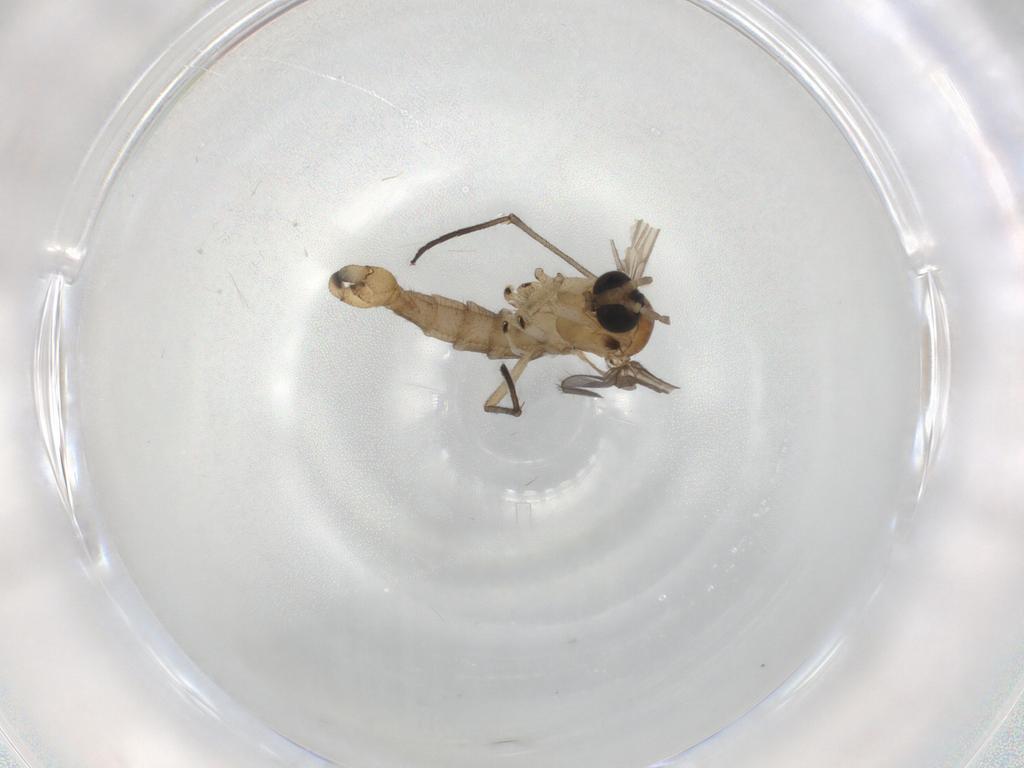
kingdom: Animalia
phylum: Arthropoda
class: Insecta
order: Diptera
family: Sciaridae
